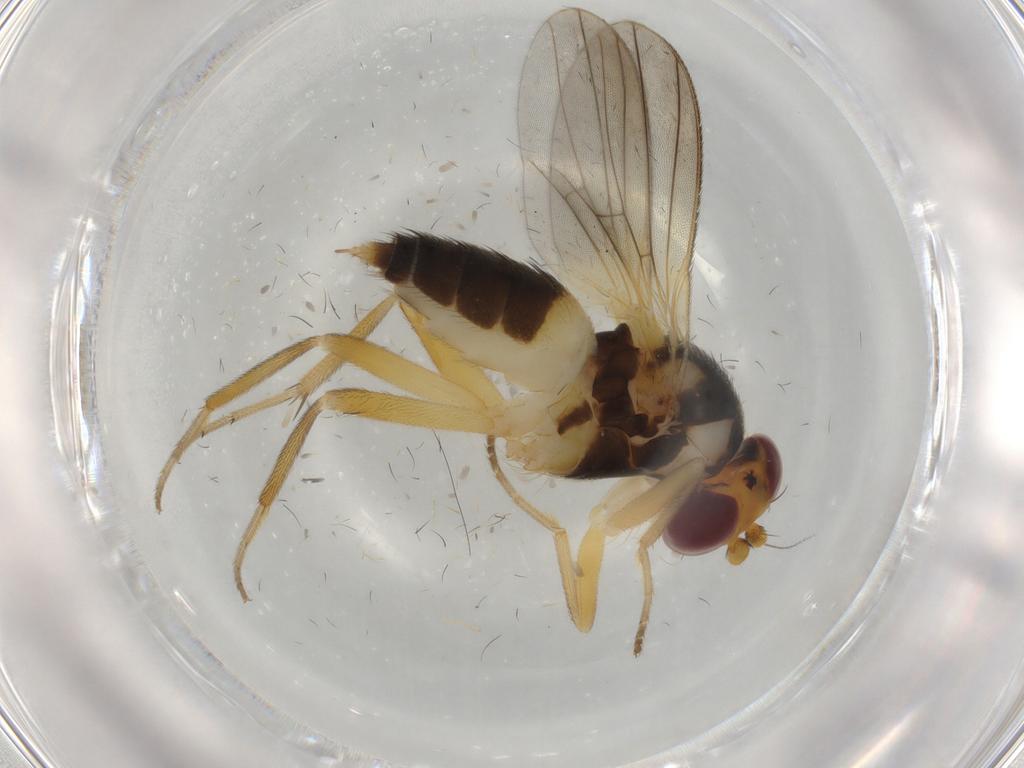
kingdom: Animalia
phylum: Arthropoda
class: Insecta
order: Diptera
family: Clusiidae
